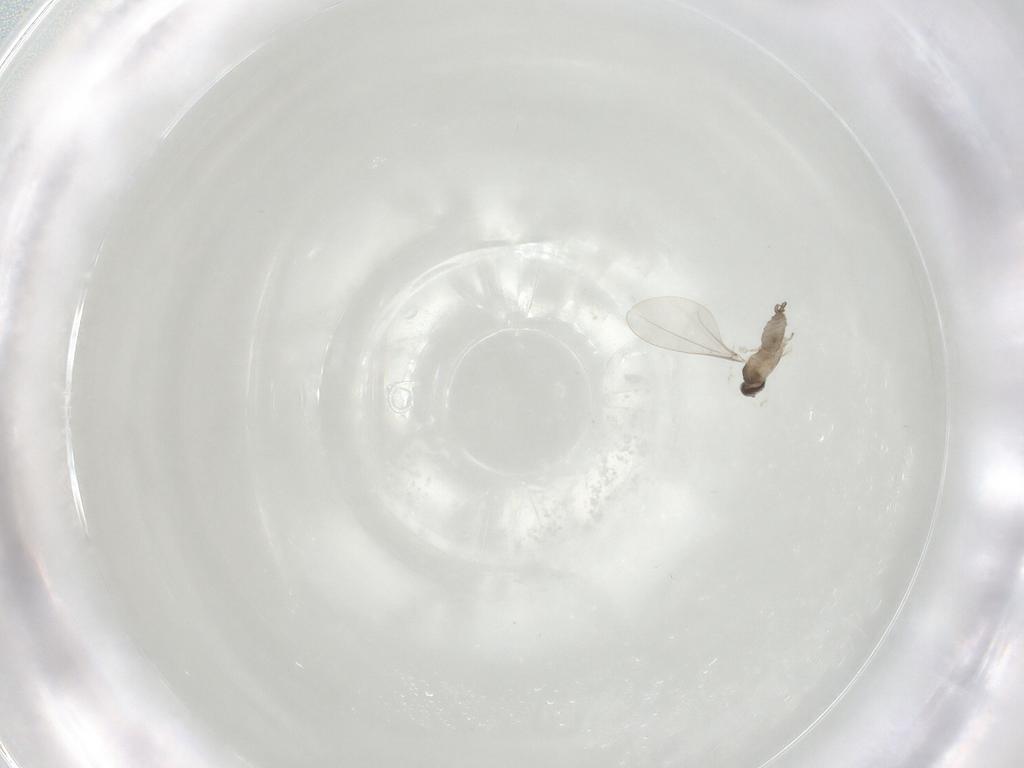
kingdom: Animalia
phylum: Arthropoda
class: Insecta
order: Diptera
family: Cecidomyiidae
